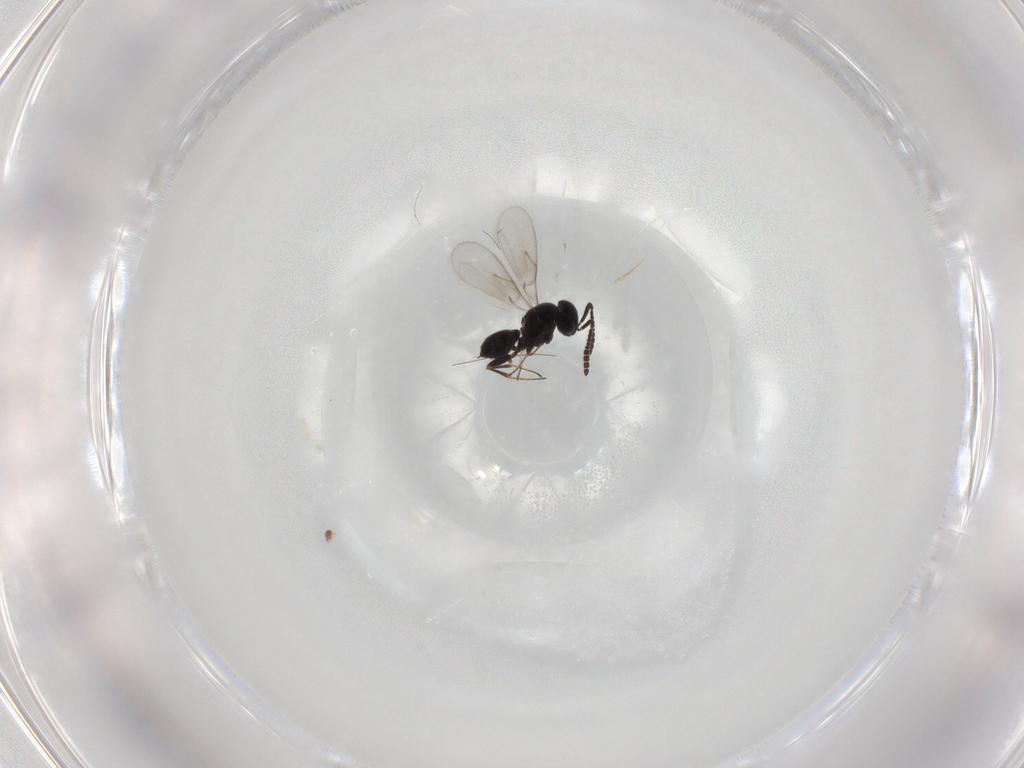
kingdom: Animalia
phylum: Arthropoda
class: Insecta
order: Hymenoptera
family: Scelionidae
